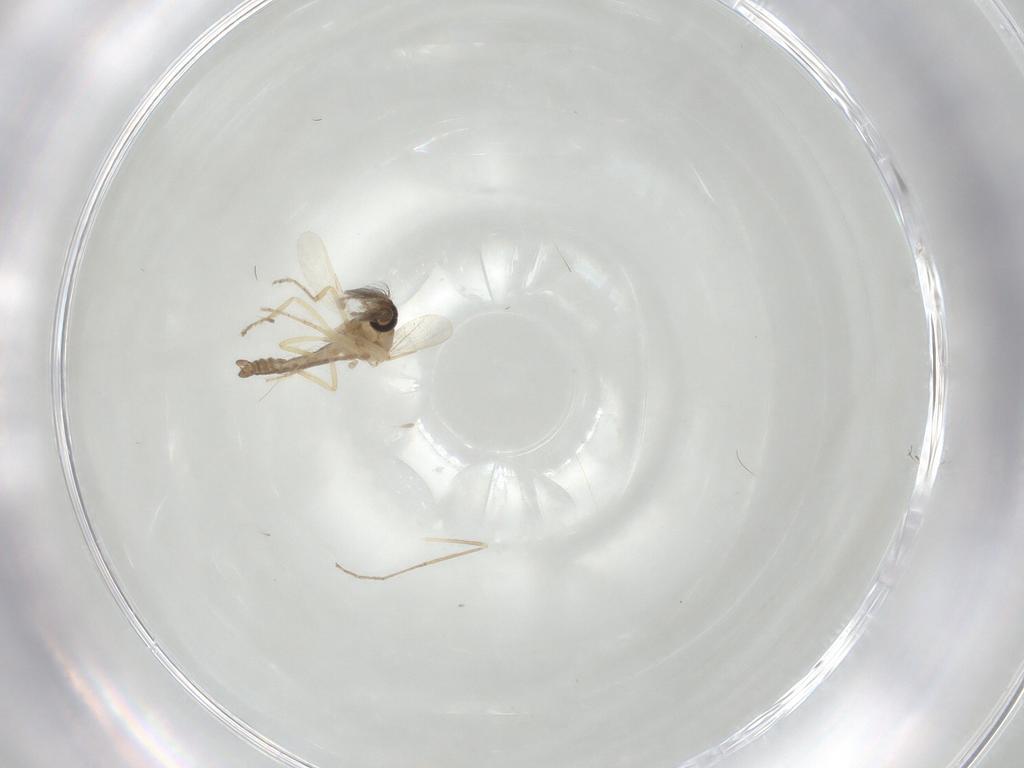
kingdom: Animalia
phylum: Arthropoda
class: Insecta
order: Diptera
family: Ceratopogonidae
